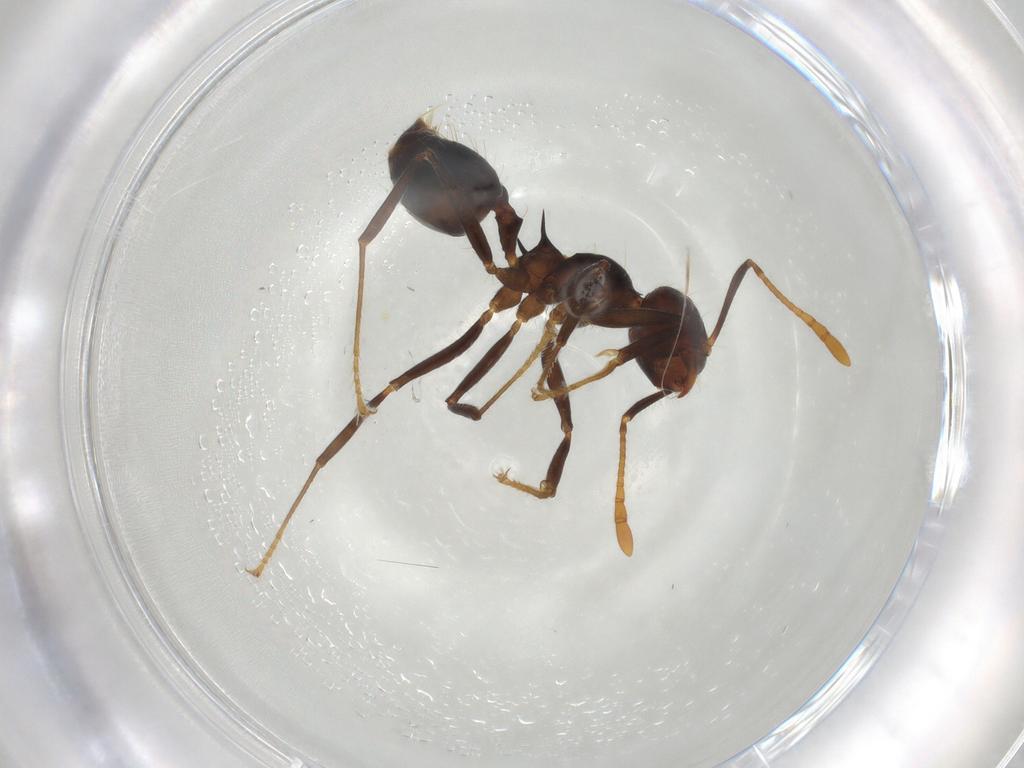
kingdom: Animalia
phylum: Arthropoda
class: Insecta
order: Hymenoptera
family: Formicidae
